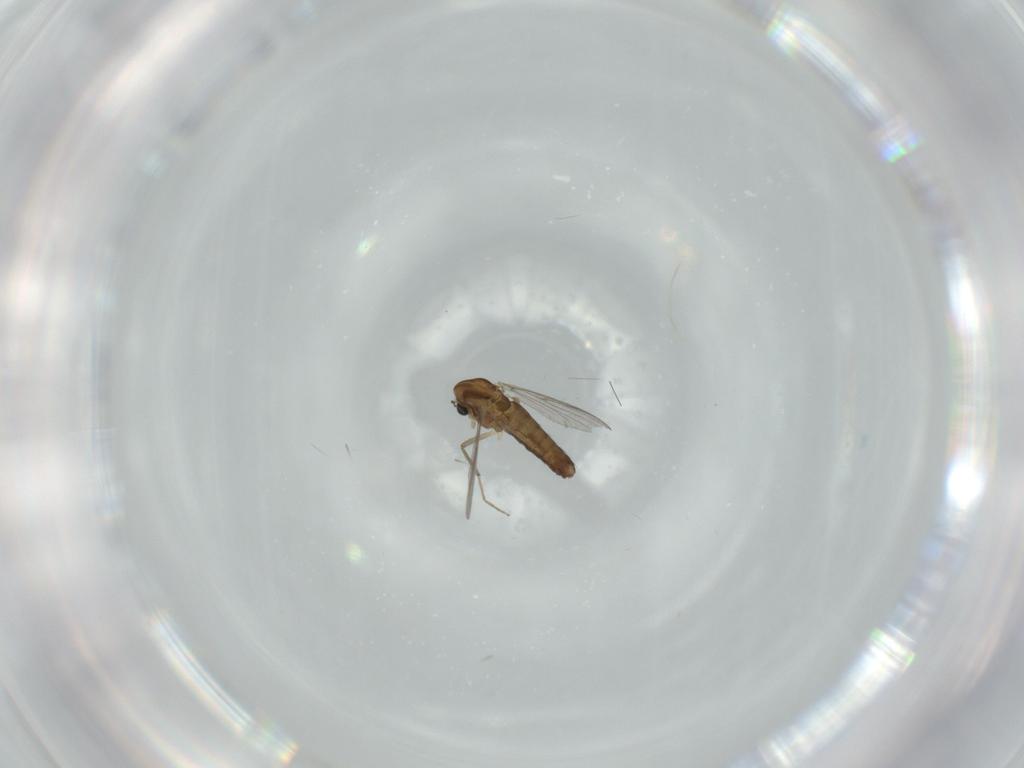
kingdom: Animalia
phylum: Arthropoda
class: Insecta
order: Diptera
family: Chironomidae
